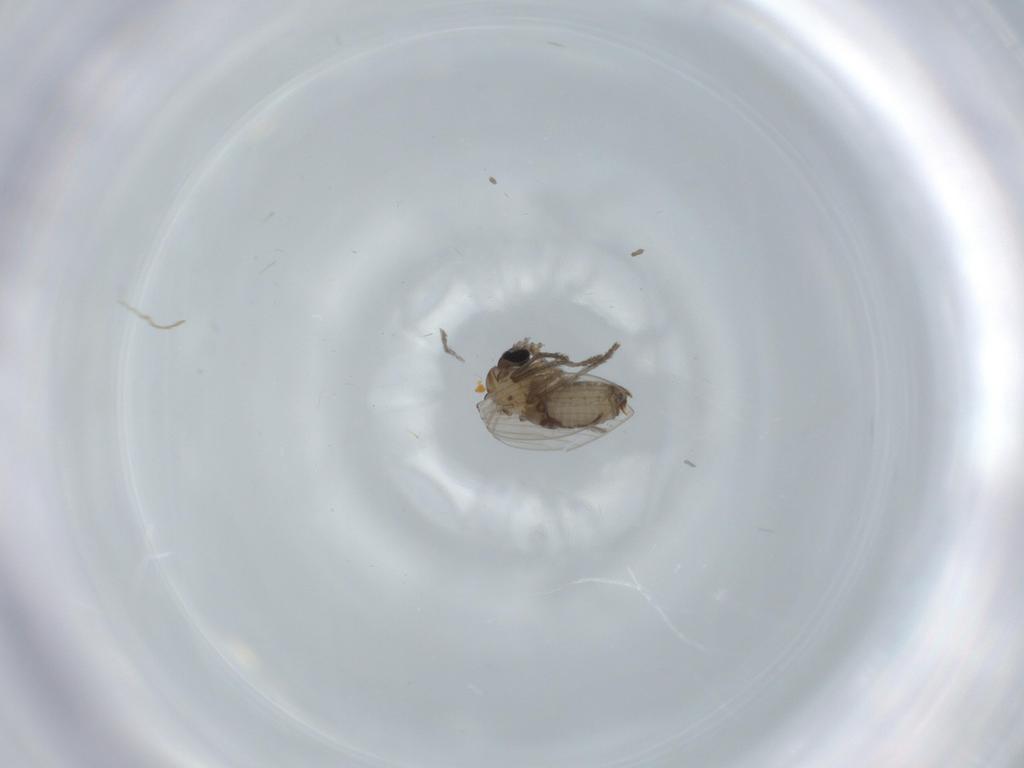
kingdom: Animalia
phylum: Arthropoda
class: Insecta
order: Diptera
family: Psychodidae
